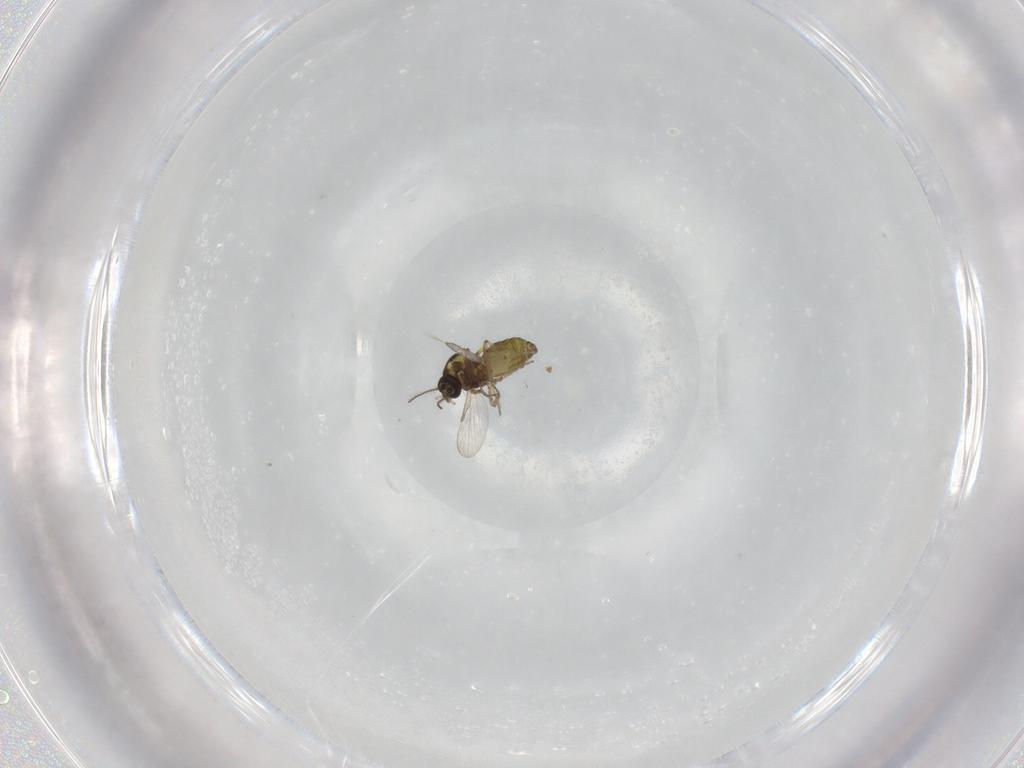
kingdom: Animalia
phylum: Arthropoda
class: Insecta
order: Diptera
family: Ceratopogonidae
